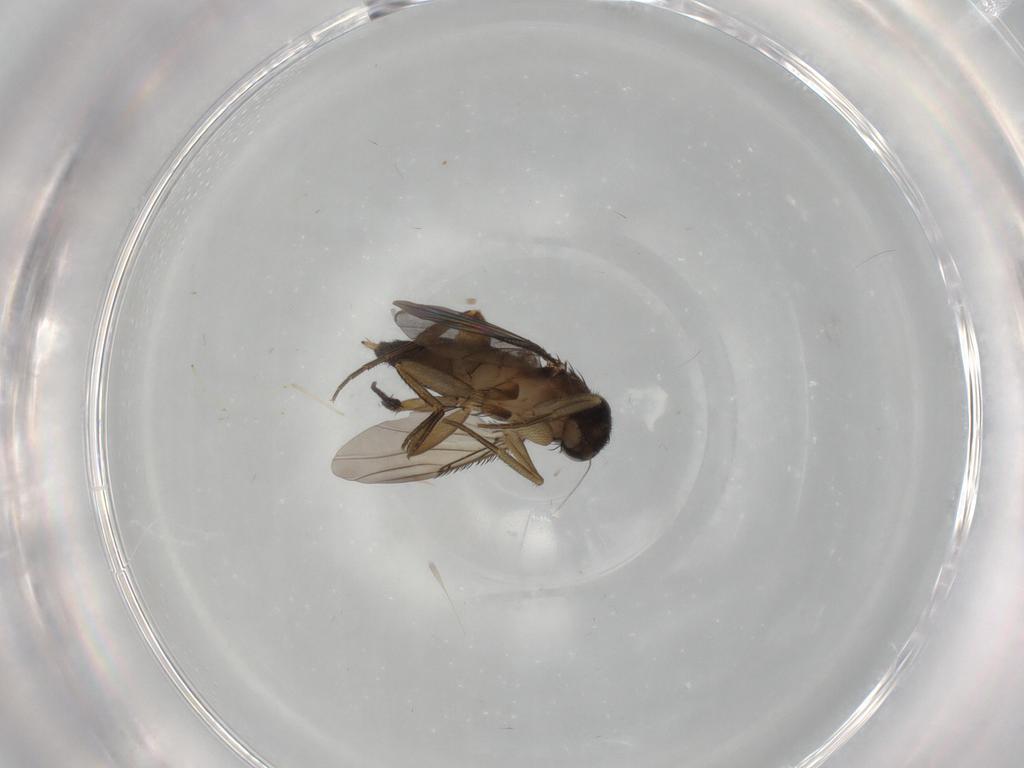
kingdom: Animalia
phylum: Arthropoda
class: Insecta
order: Diptera
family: Phoridae
